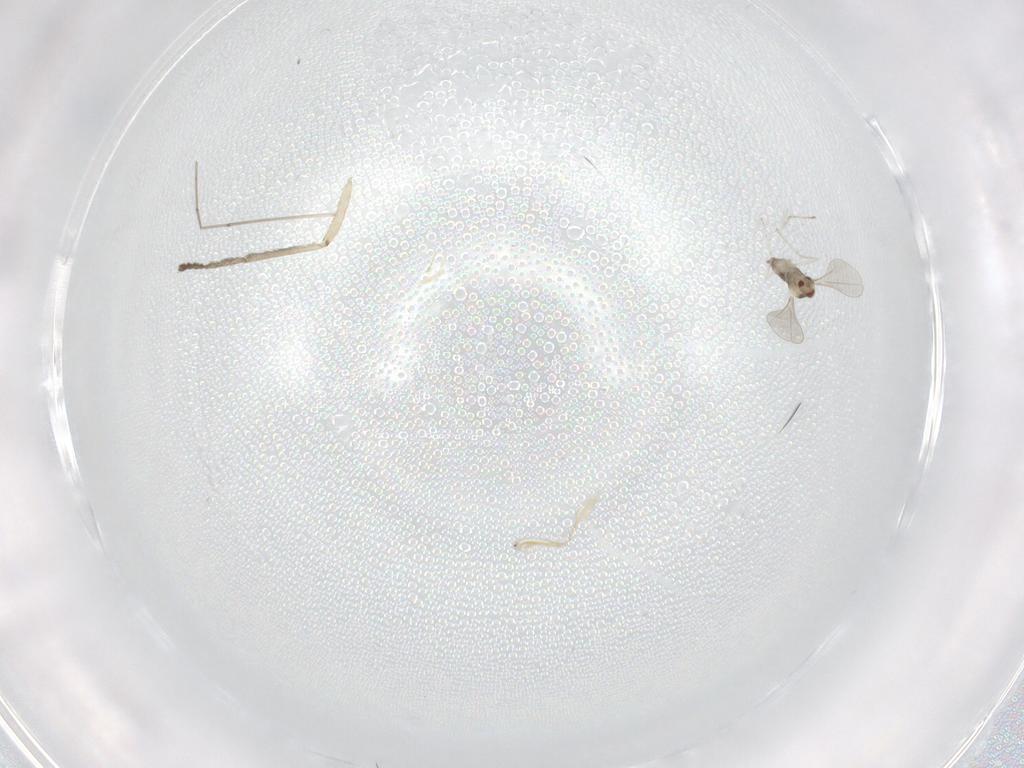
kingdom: Animalia
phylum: Arthropoda
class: Insecta
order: Diptera
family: Psychodidae
